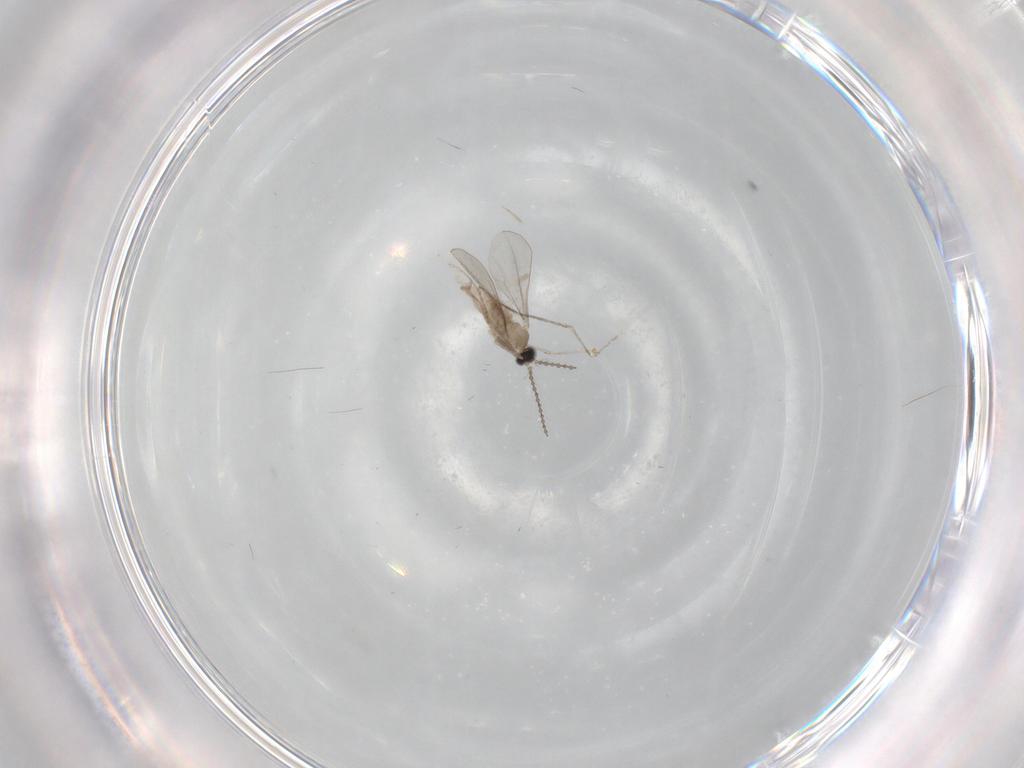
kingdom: Animalia
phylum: Arthropoda
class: Insecta
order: Diptera
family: Cecidomyiidae
